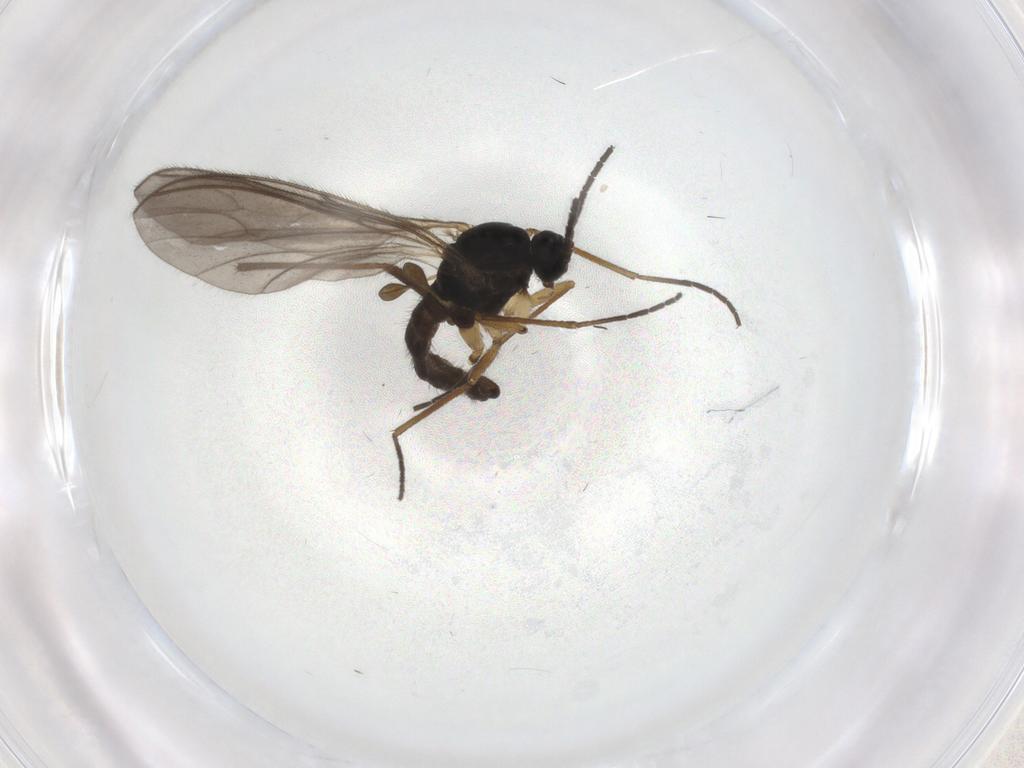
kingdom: Animalia
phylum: Arthropoda
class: Insecta
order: Diptera
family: Sciaridae
